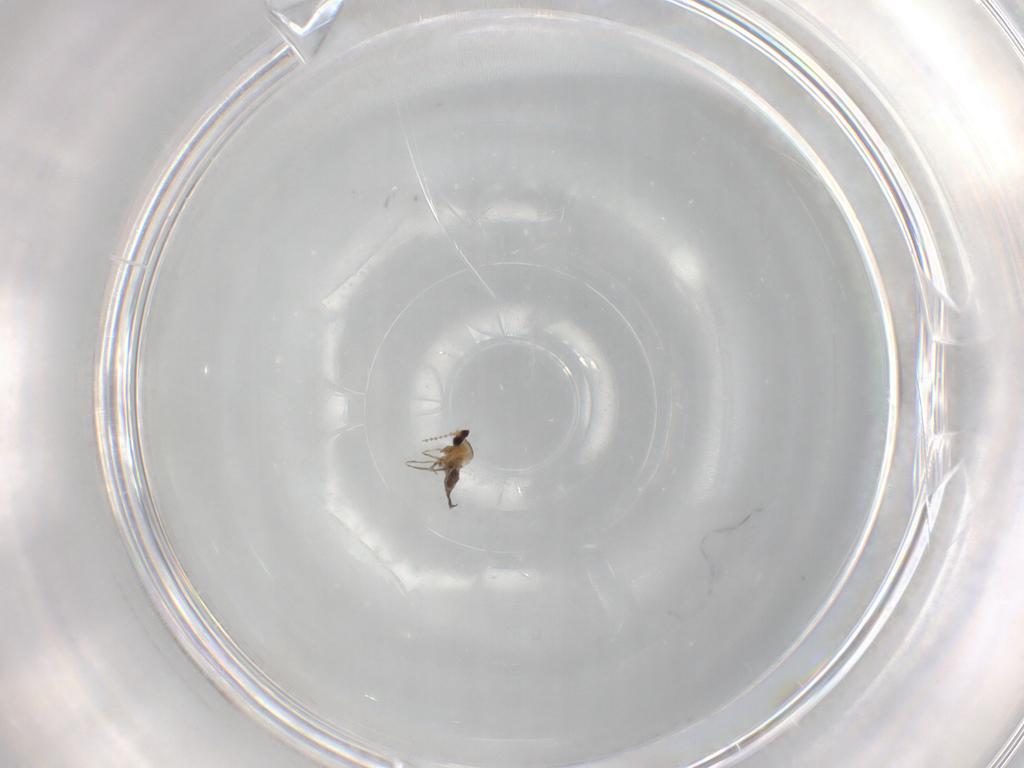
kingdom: Animalia
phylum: Arthropoda
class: Insecta
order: Diptera
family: Cecidomyiidae
